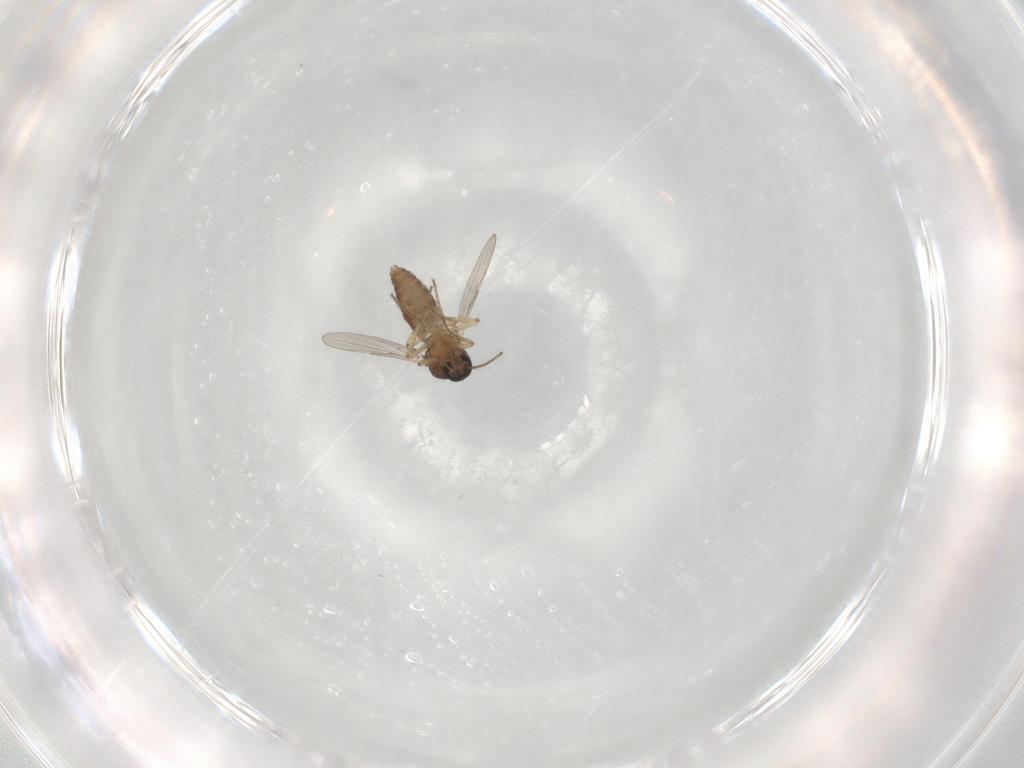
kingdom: Animalia
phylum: Arthropoda
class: Insecta
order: Diptera
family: Ceratopogonidae
